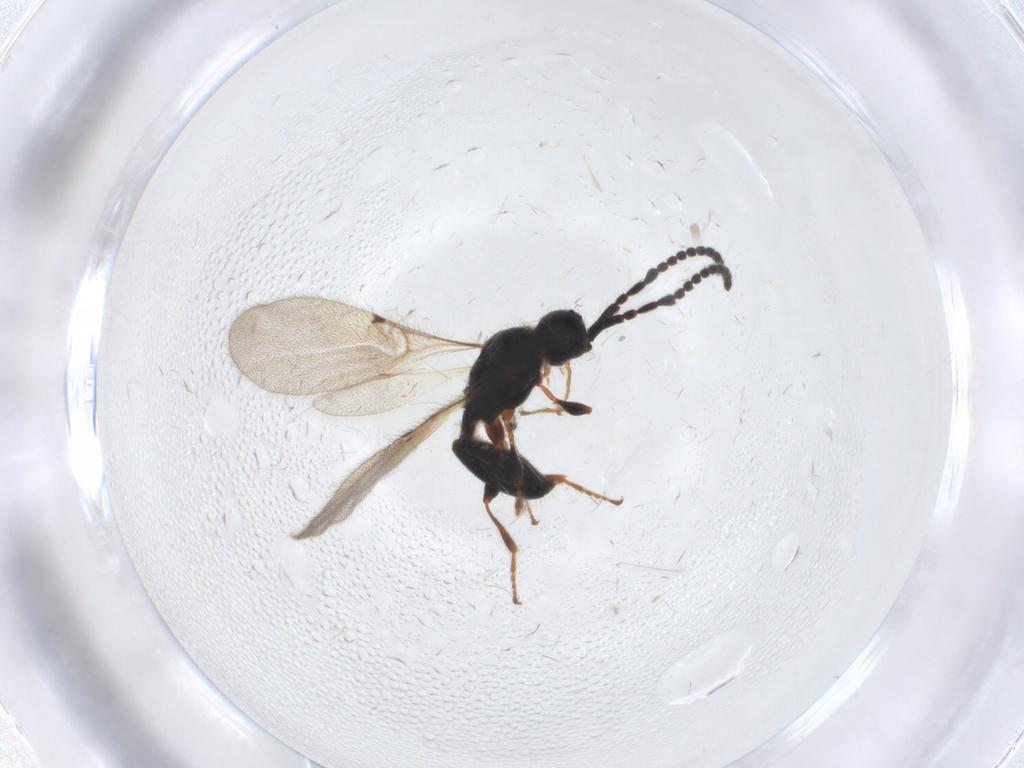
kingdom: Animalia
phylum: Arthropoda
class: Insecta
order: Hymenoptera
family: Diapriidae
